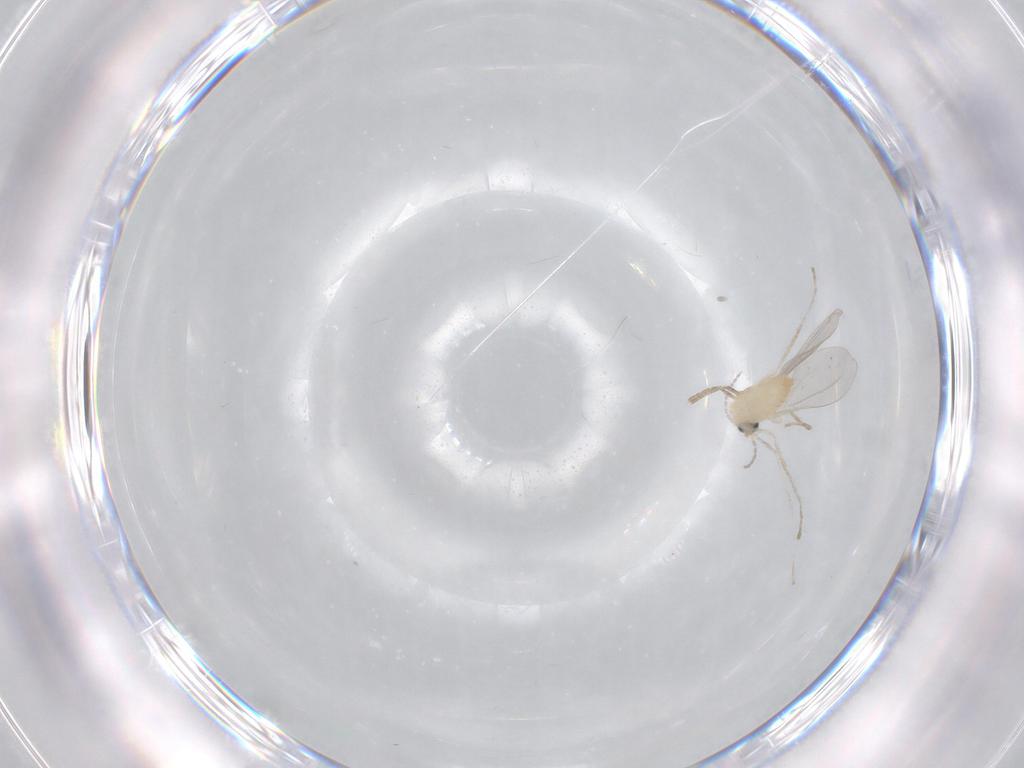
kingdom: Animalia
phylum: Arthropoda
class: Insecta
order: Diptera
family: Cecidomyiidae
